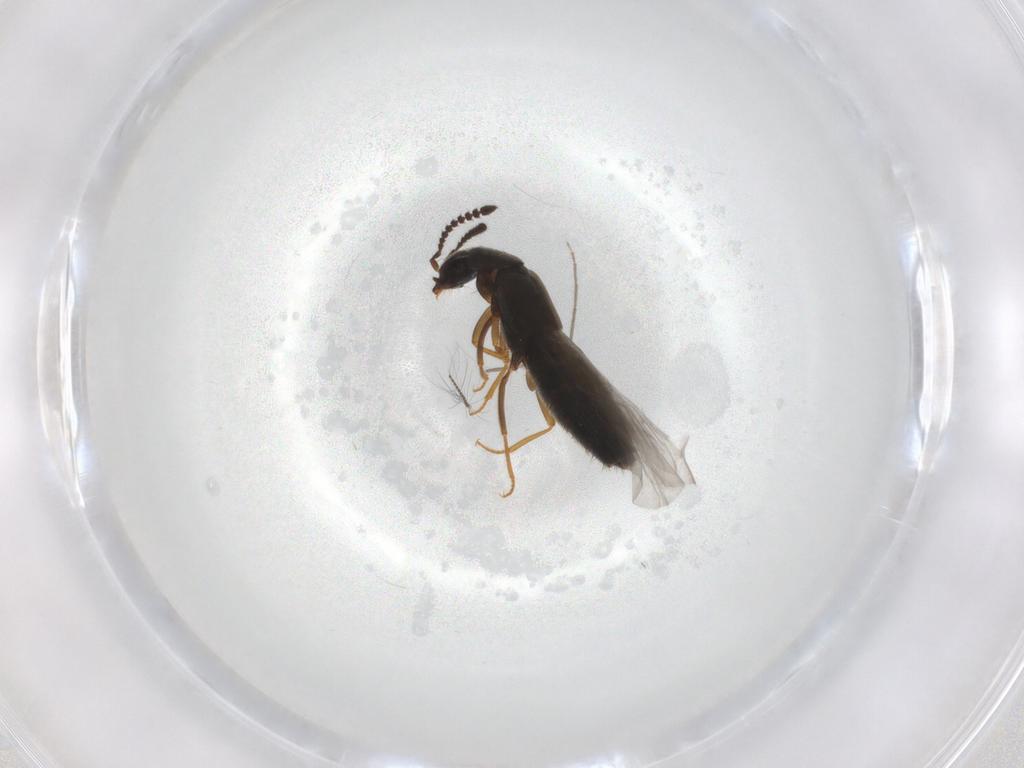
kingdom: Animalia
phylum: Arthropoda
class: Insecta
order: Coleoptera
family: Staphylinidae
